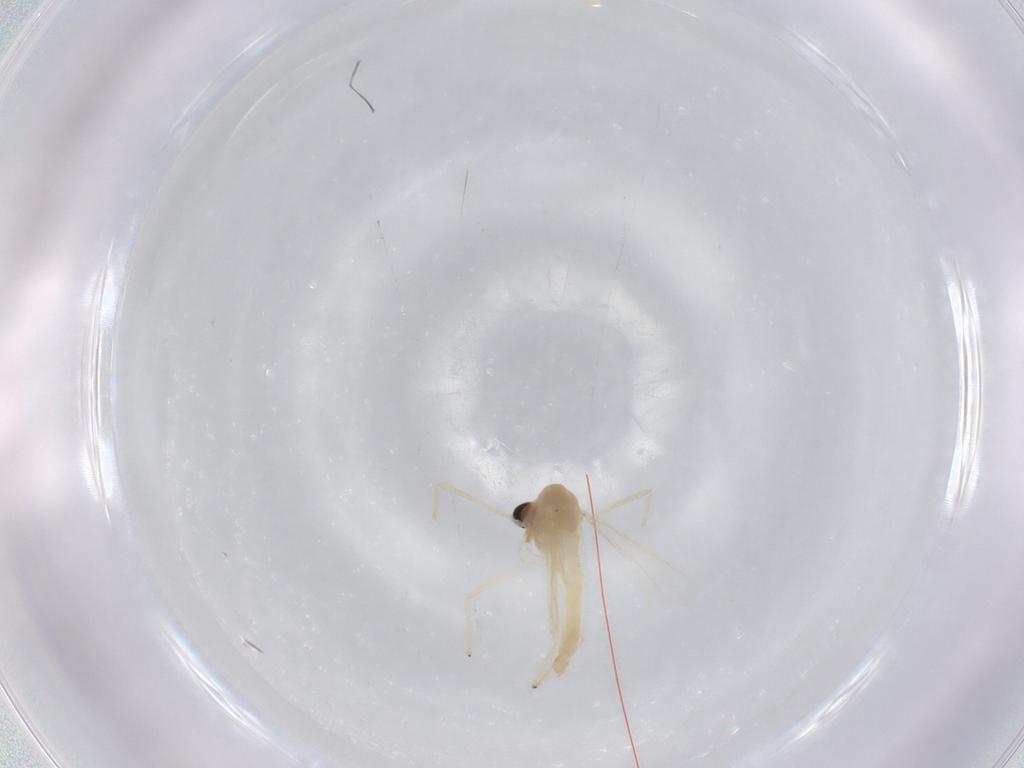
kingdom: Animalia
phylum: Arthropoda
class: Insecta
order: Diptera
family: Chironomidae
